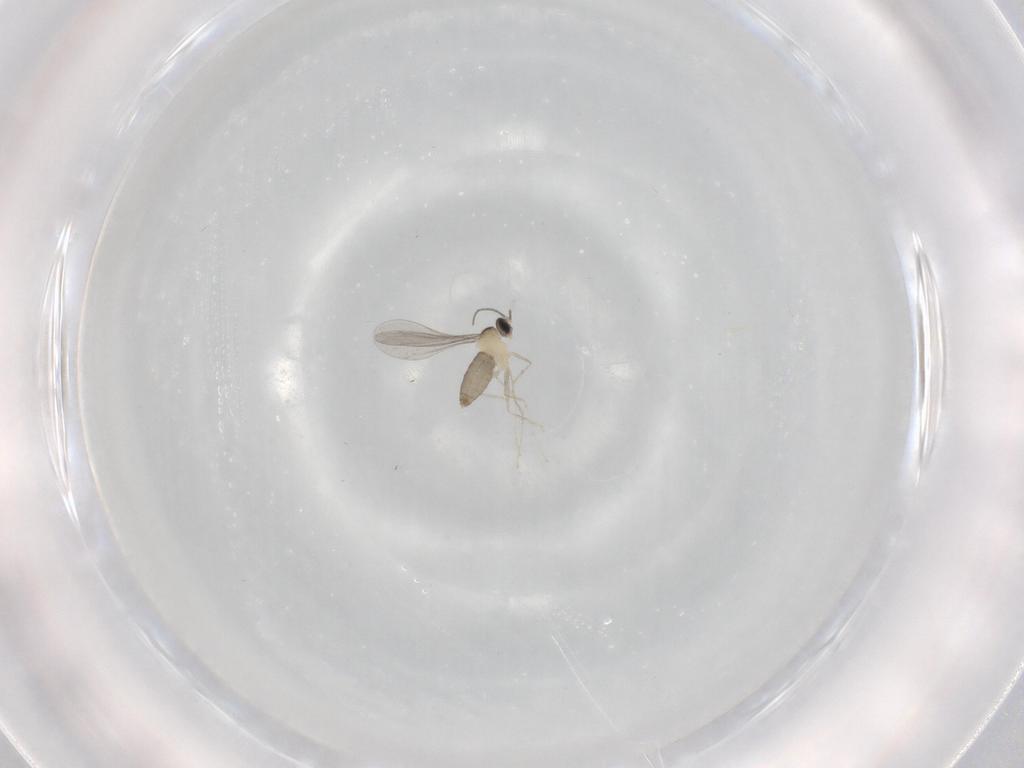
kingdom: Animalia
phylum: Arthropoda
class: Insecta
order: Diptera
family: Cecidomyiidae
